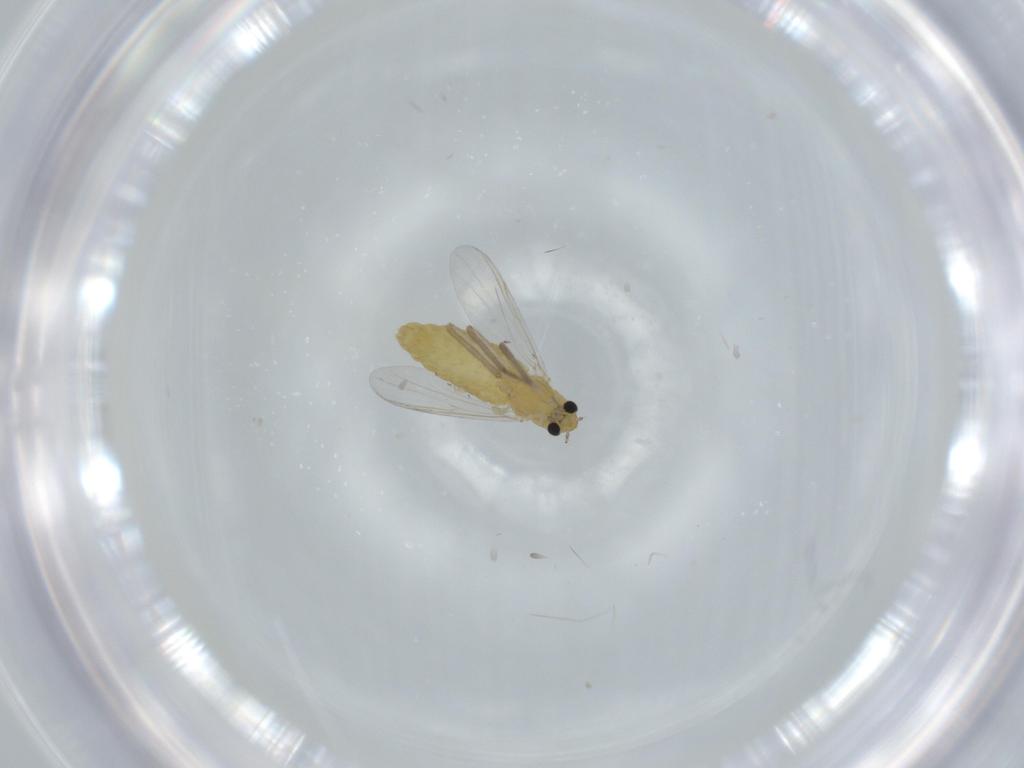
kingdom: Animalia
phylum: Arthropoda
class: Insecta
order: Diptera
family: Chironomidae
